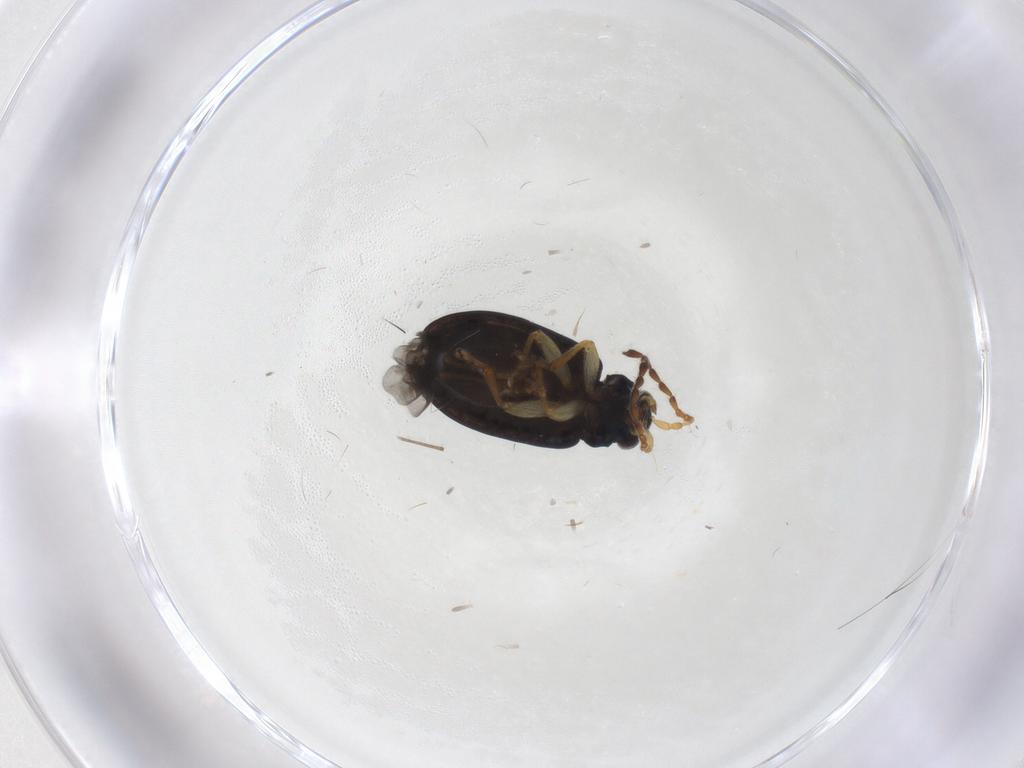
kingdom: Animalia
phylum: Arthropoda
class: Insecta
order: Coleoptera
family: Chrysomelidae
